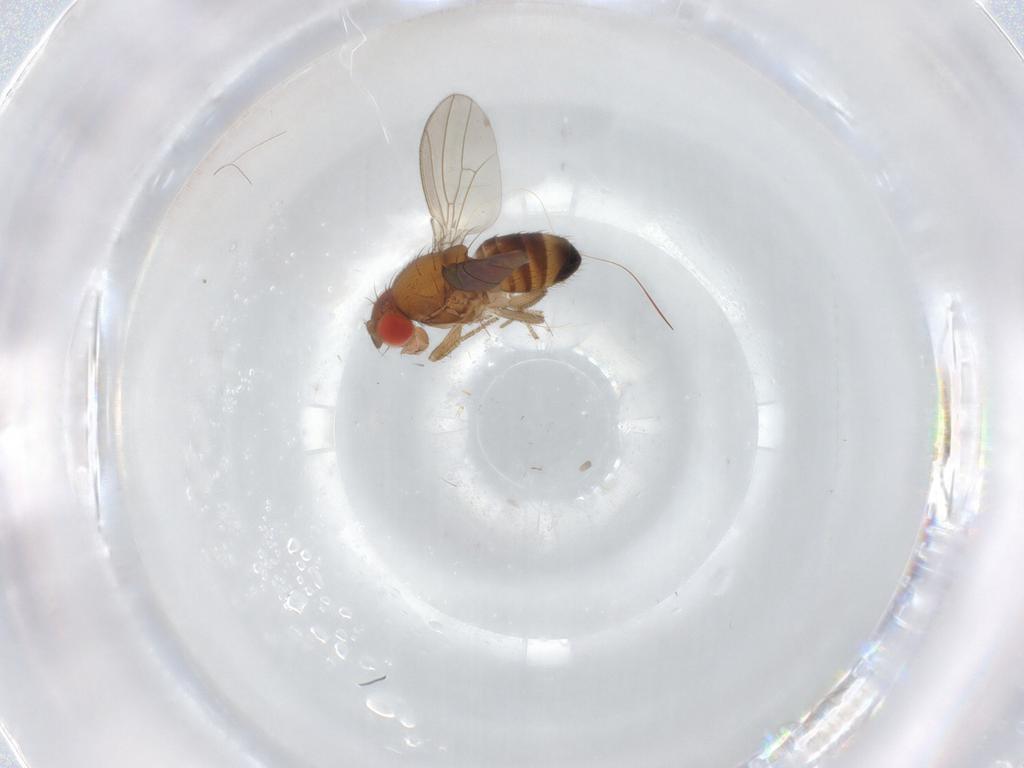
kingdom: Animalia
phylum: Arthropoda
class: Insecta
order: Diptera
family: Drosophilidae
